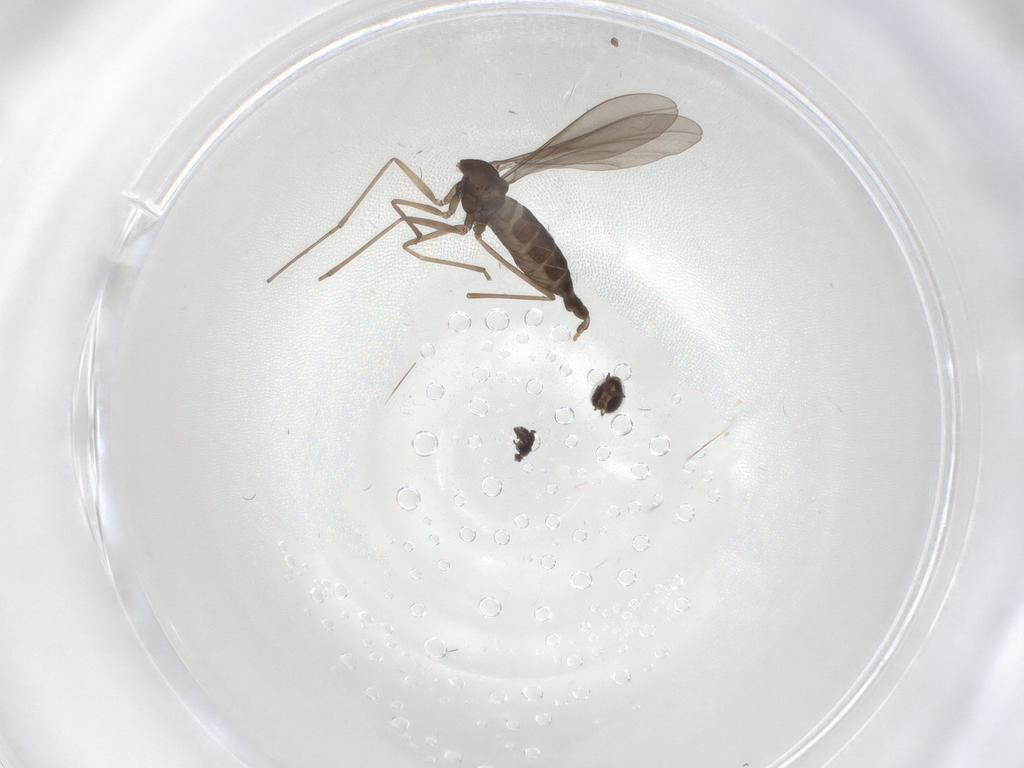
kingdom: Animalia
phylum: Arthropoda
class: Insecta
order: Diptera
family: Cecidomyiidae
